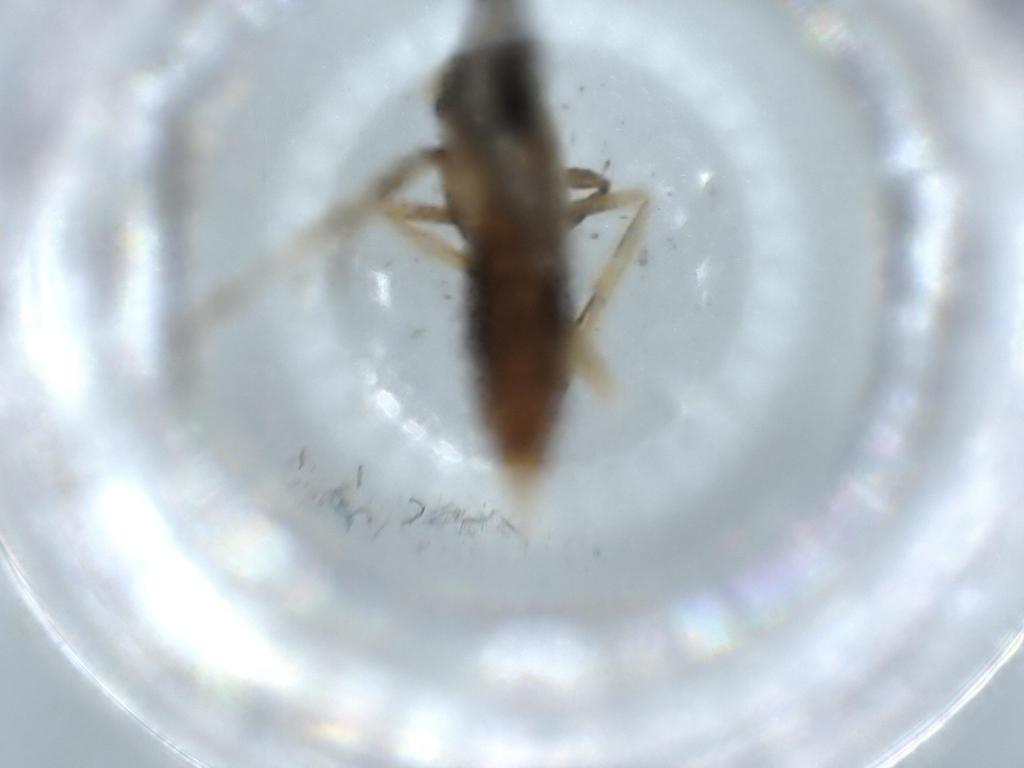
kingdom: Animalia
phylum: Arthropoda
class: Insecta
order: Lepidoptera
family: Lecithoceridae
